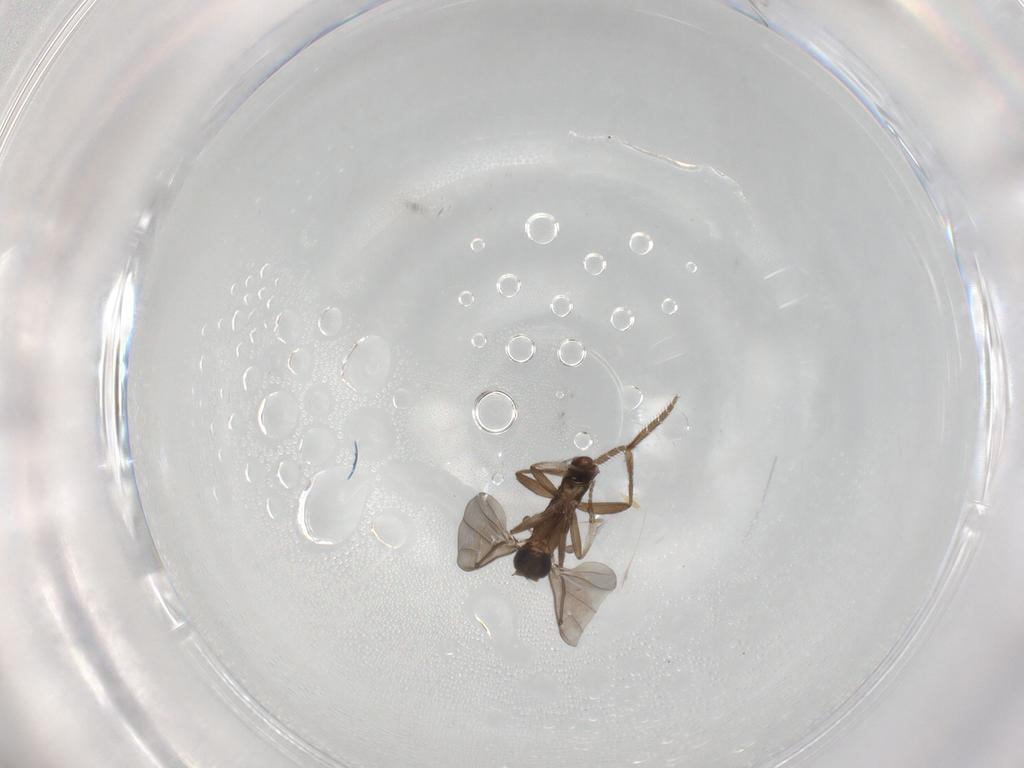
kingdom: Animalia
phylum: Arthropoda
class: Insecta
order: Diptera
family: Phoridae
